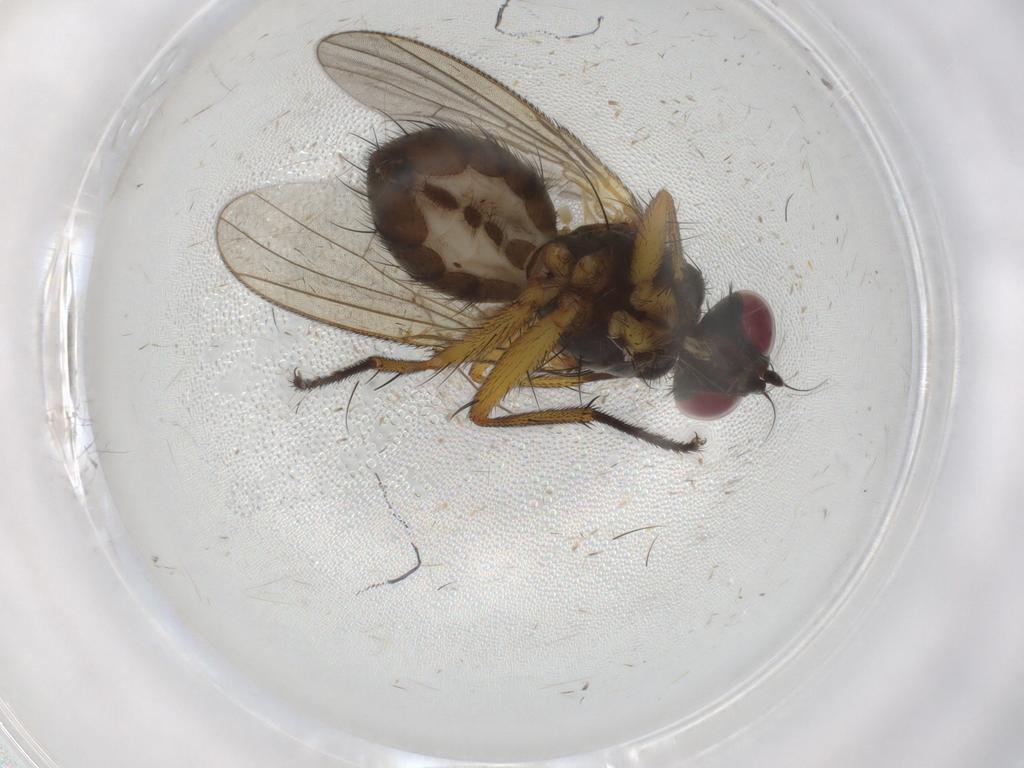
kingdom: Animalia
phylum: Arthropoda
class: Insecta
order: Diptera
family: Muscidae
